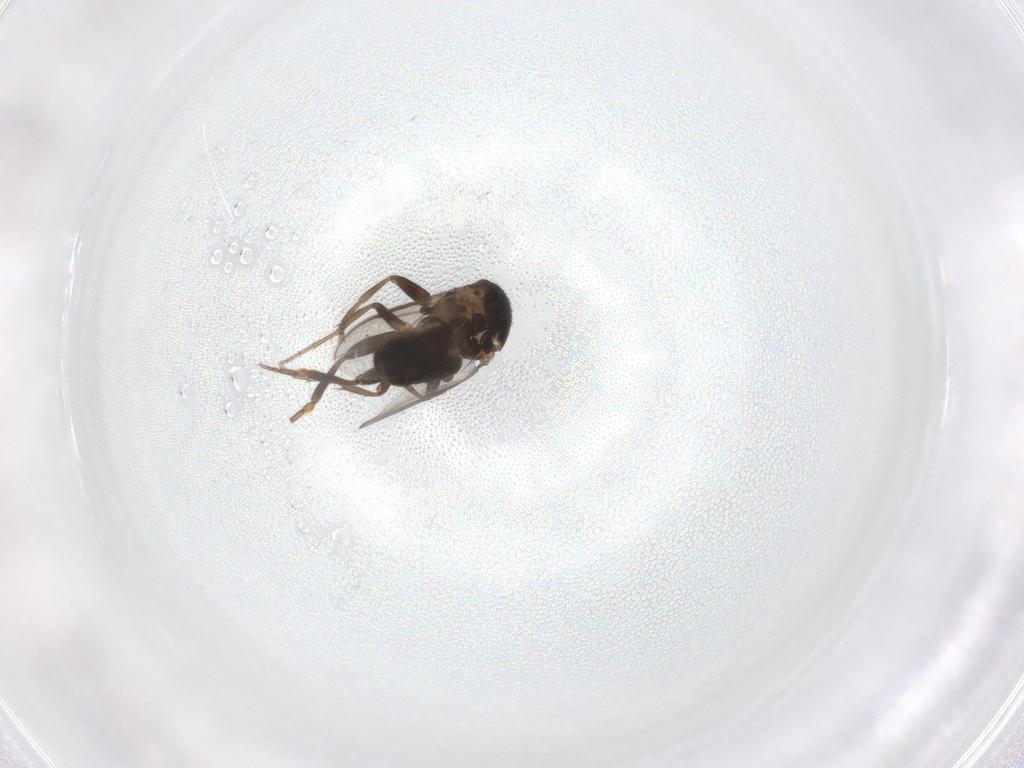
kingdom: Animalia
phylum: Arthropoda
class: Insecta
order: Diptera
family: Sphaeroceridae
